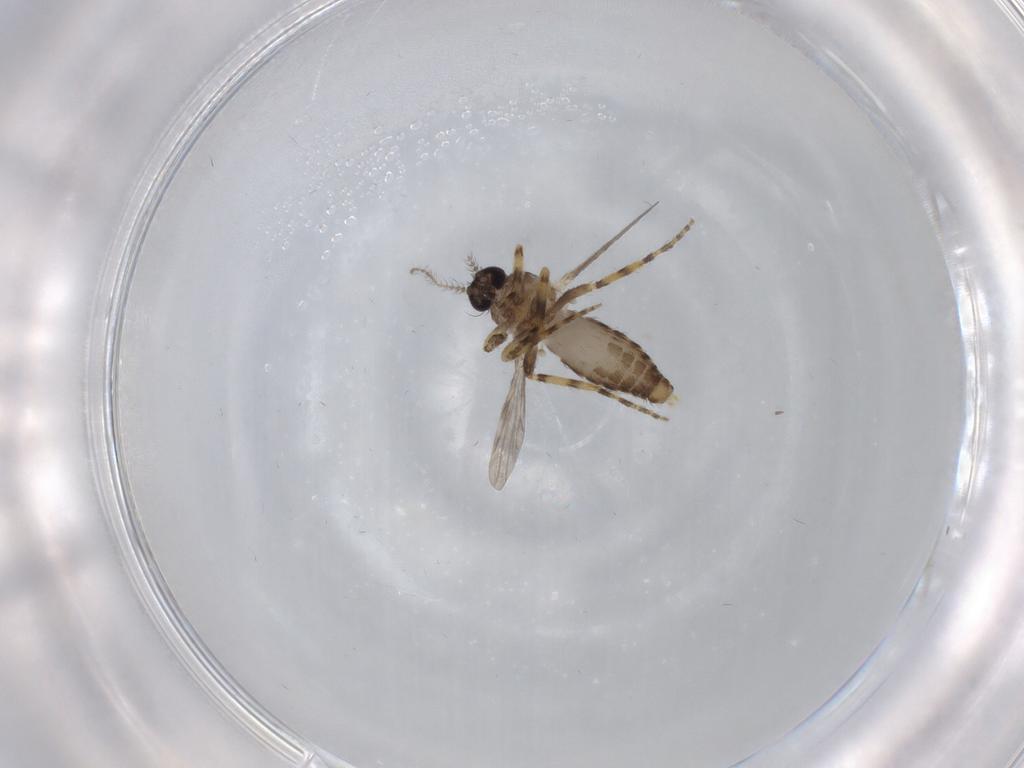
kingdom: Animalia
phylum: Arthropoda
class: Insecta
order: Diptera
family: Ceratopogonidae
